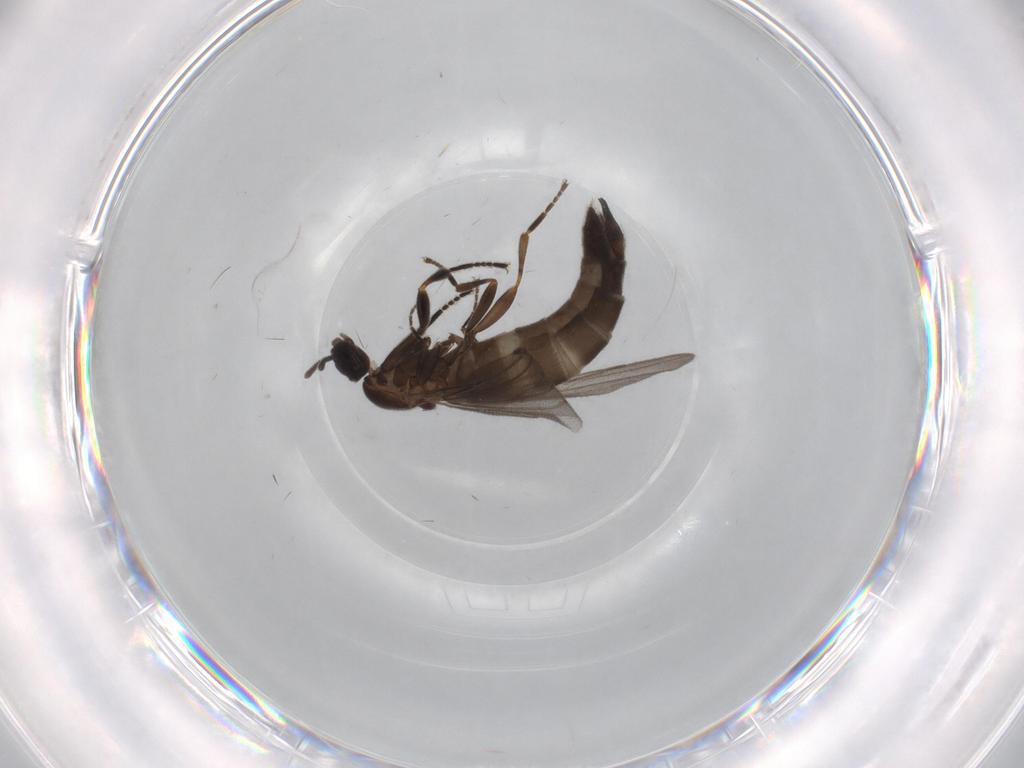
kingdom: Animalia
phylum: Arthropoda
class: Insecta
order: Diptera
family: Scatopsidae
